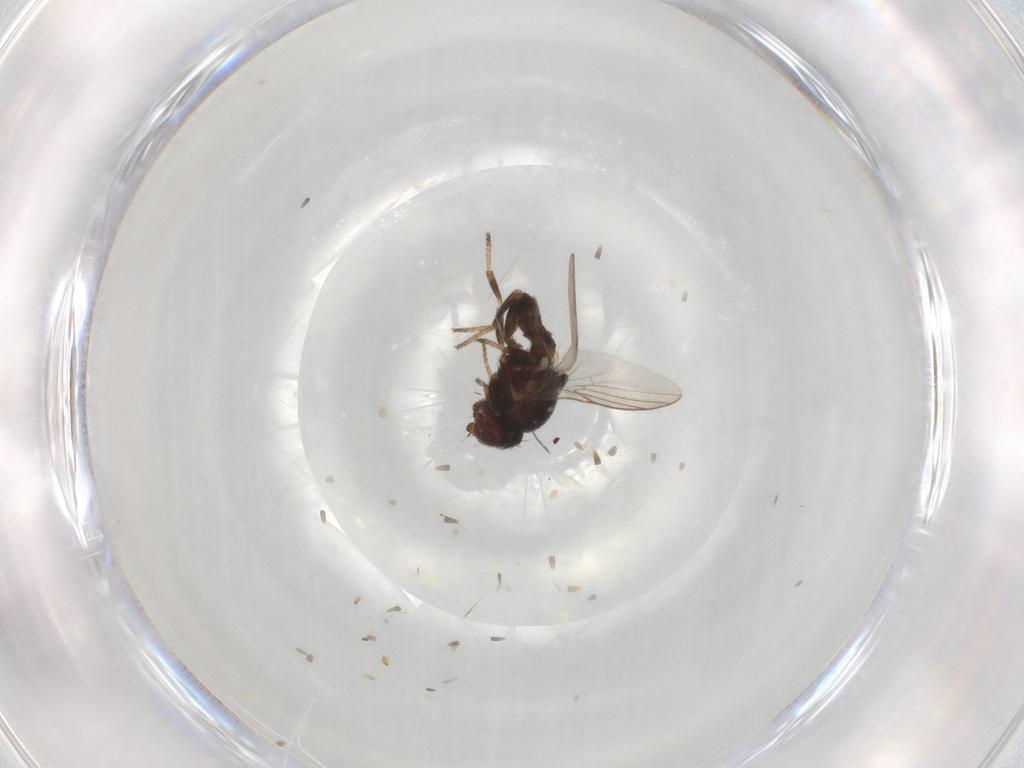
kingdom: Animalia
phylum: Arthropoda
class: Insecta
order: Diptera
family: Chloropidae
